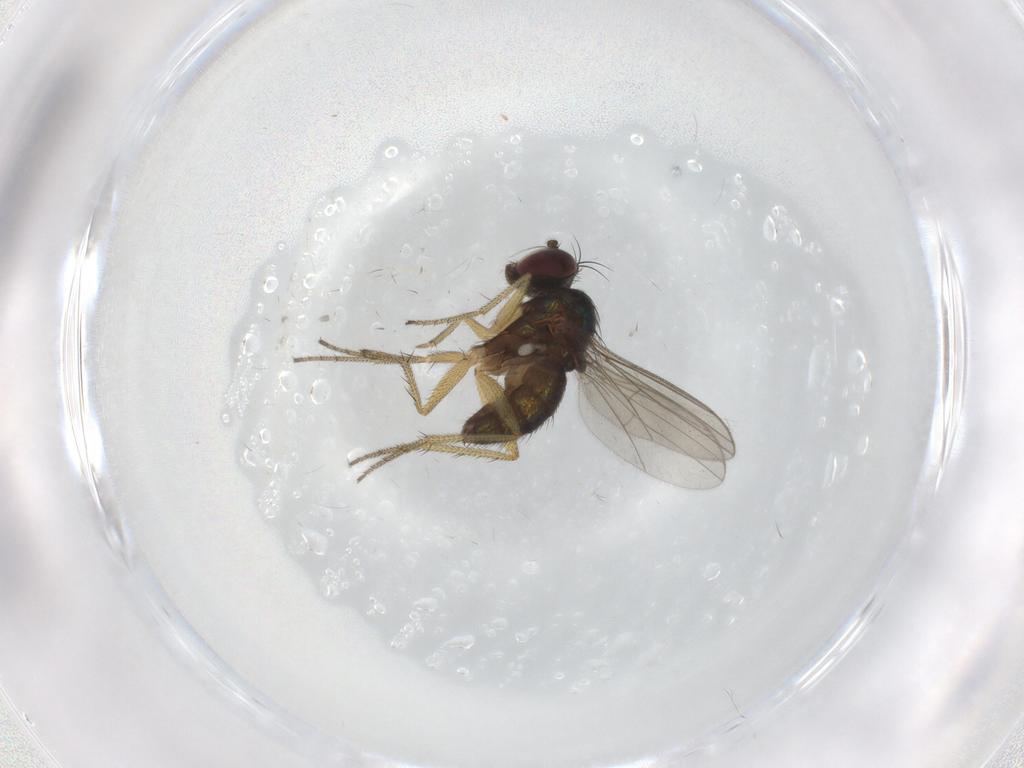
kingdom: Animalia
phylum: Arthropoda
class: Insecta
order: Diptera
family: Dolichopodidae
